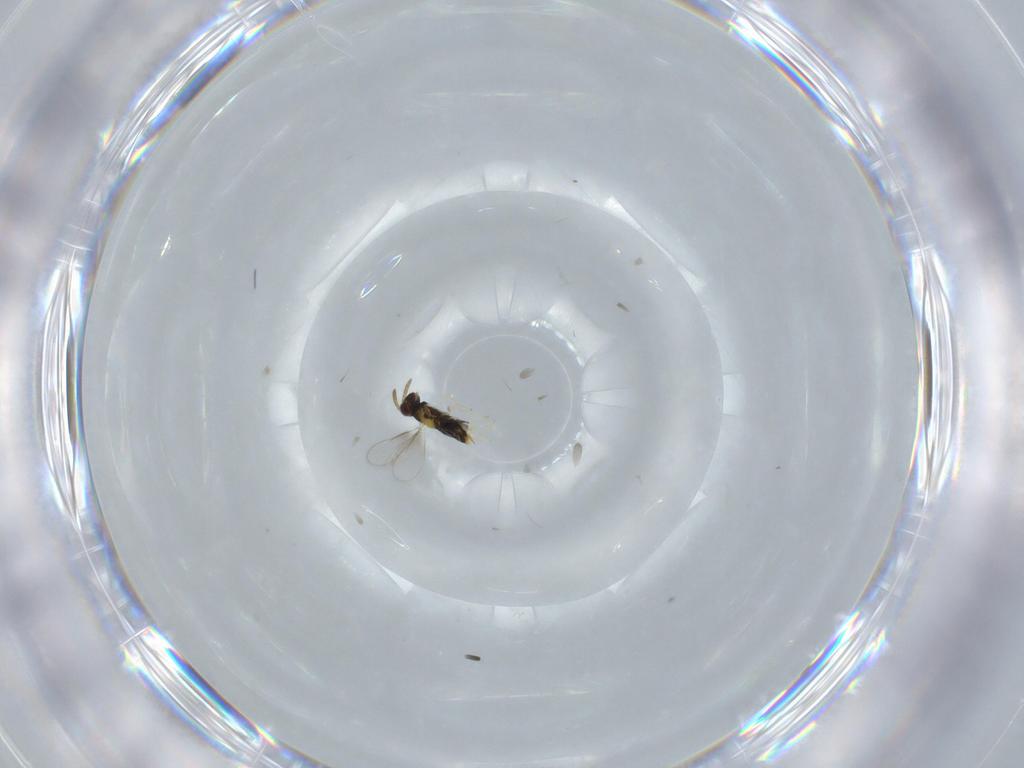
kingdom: Animalia
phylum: Arthropoda
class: Insecta
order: Hymenoptera
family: Aphelinidae
